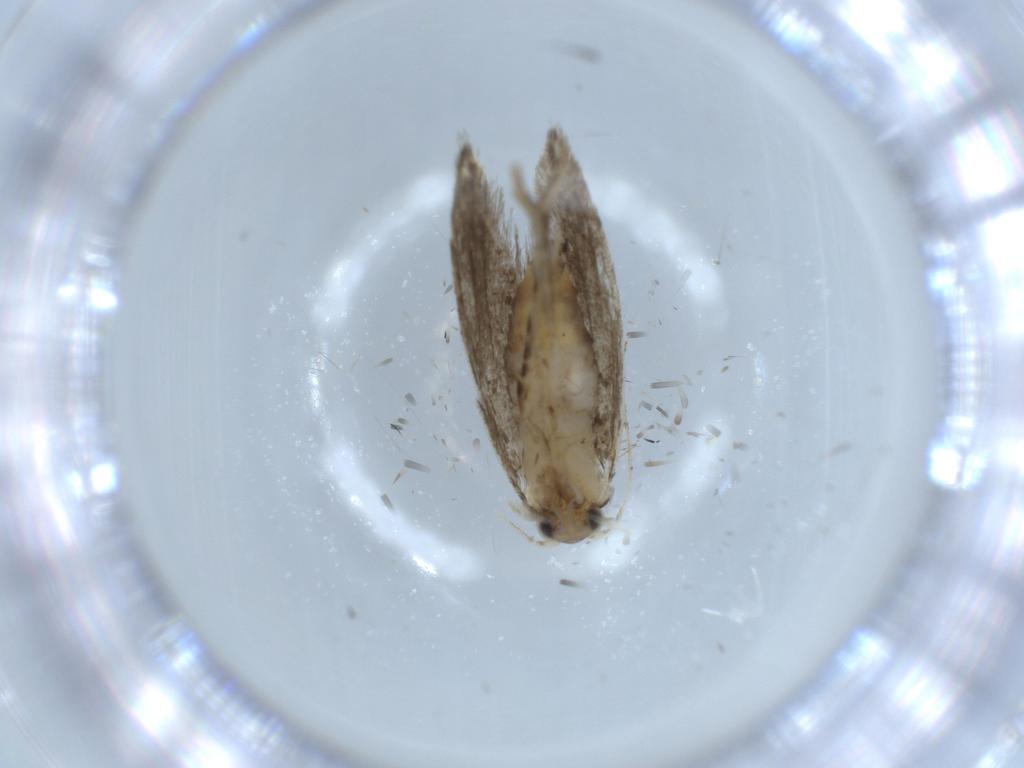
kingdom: Animalia
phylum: Arthropoda
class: Insecta
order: Lepidoptera
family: Tineidae
